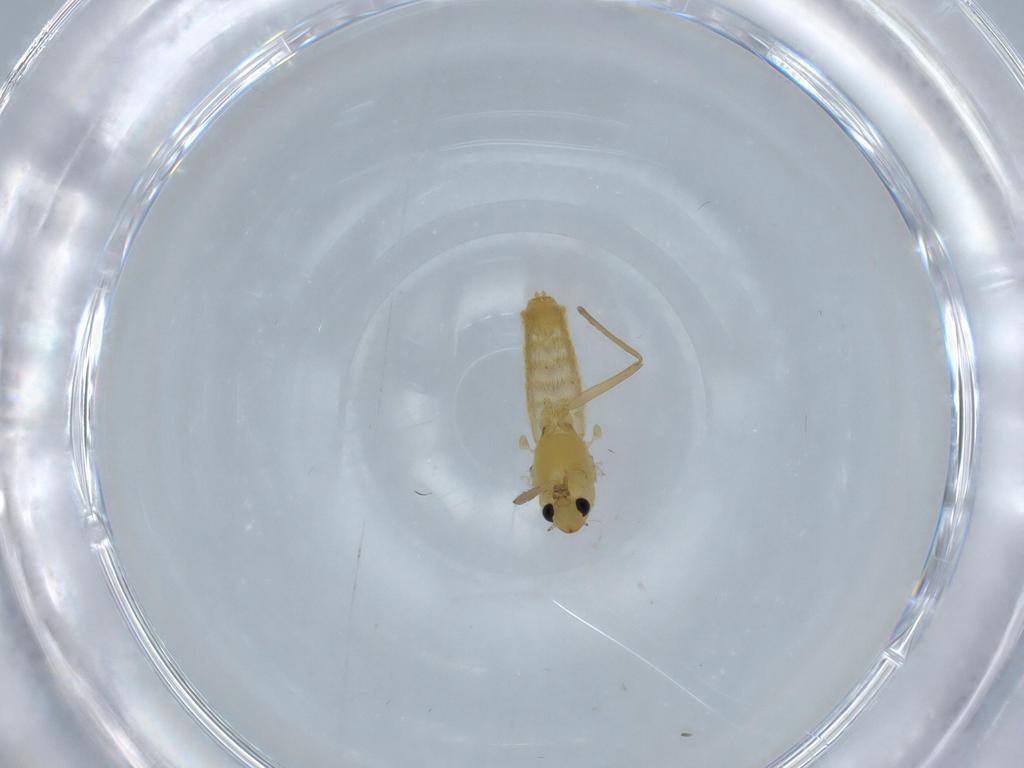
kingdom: Animalia
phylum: Arthropoda
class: Insecta
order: Diptera
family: Chironomidae
